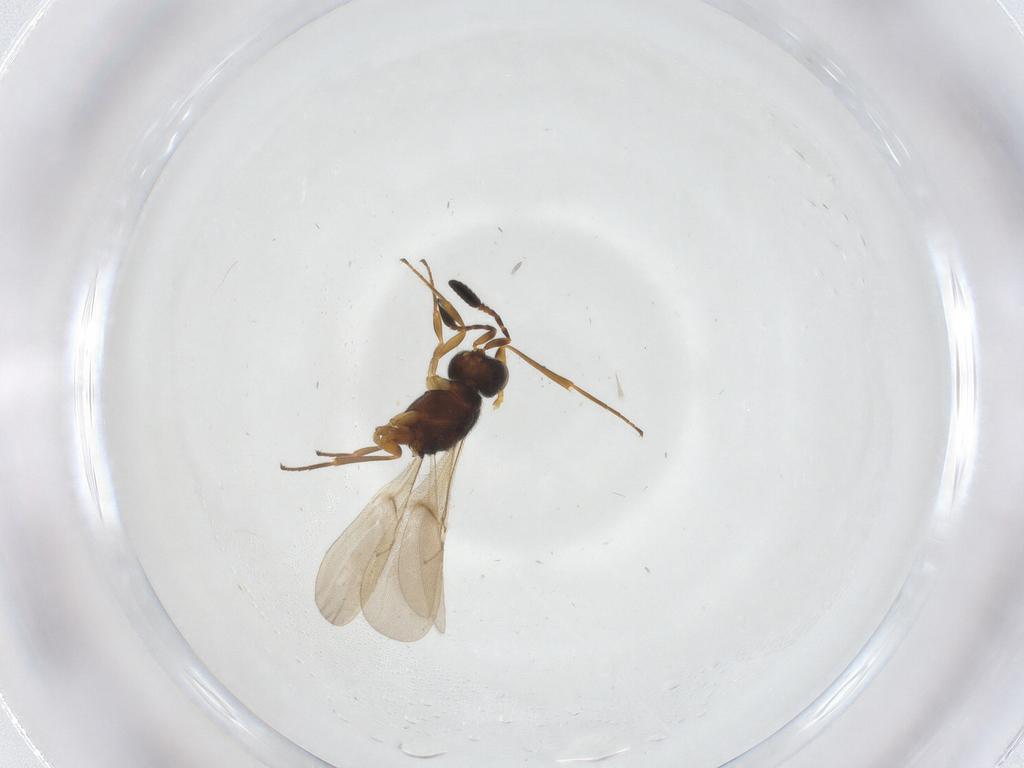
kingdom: Animalia
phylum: Arthropoda
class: Insecta
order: Hymenoptera
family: Scelionidae
